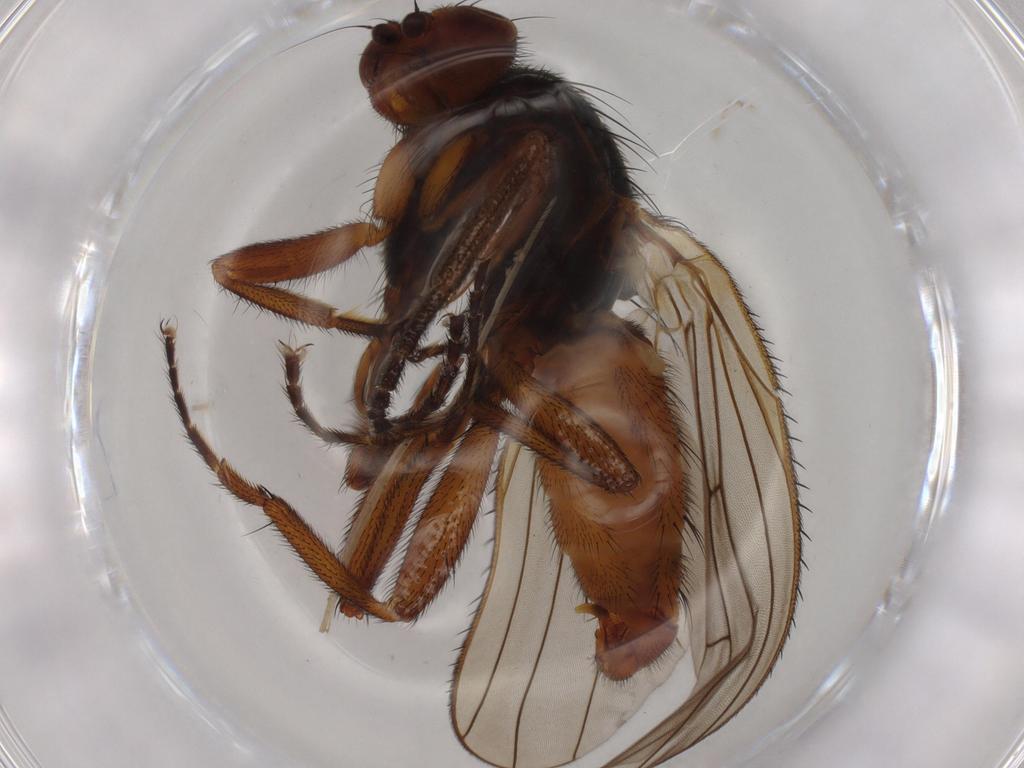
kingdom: Animalia
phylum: Arthropoda
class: Insecta
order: Diptera
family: Heleomyzidae
